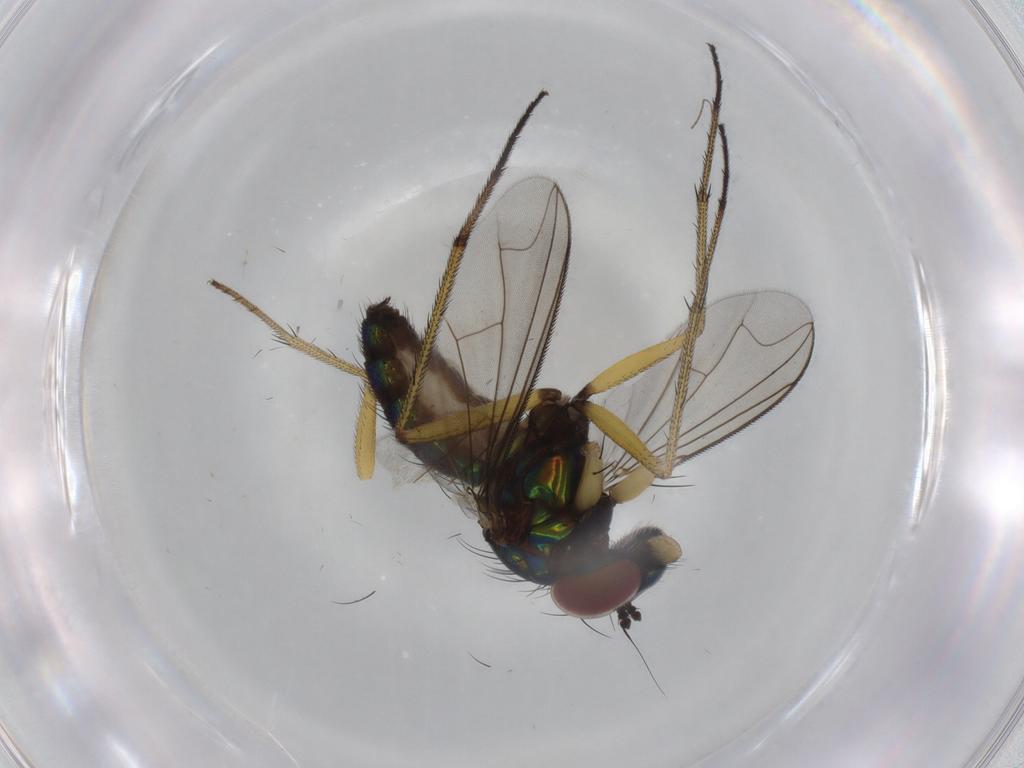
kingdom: Animalia
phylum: Arthropoda
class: Insecta
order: Diptera
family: Dolichopodidae
